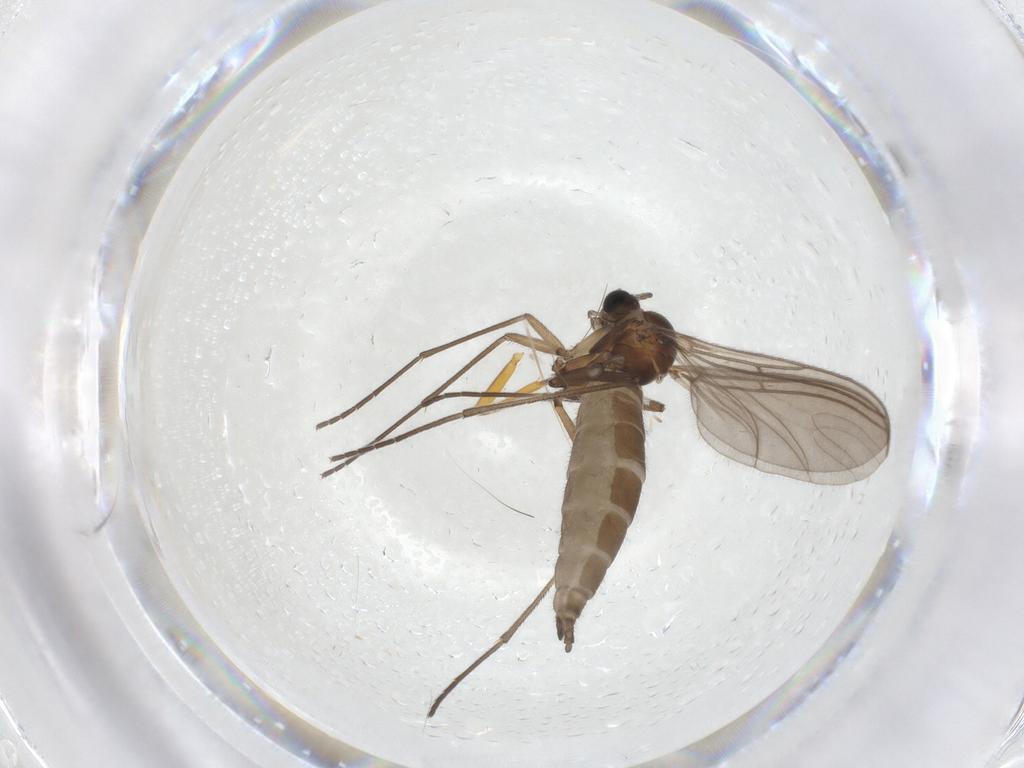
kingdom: Animalia
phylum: Arthropoda
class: Insecta
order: Diptera
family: Sciaridae
